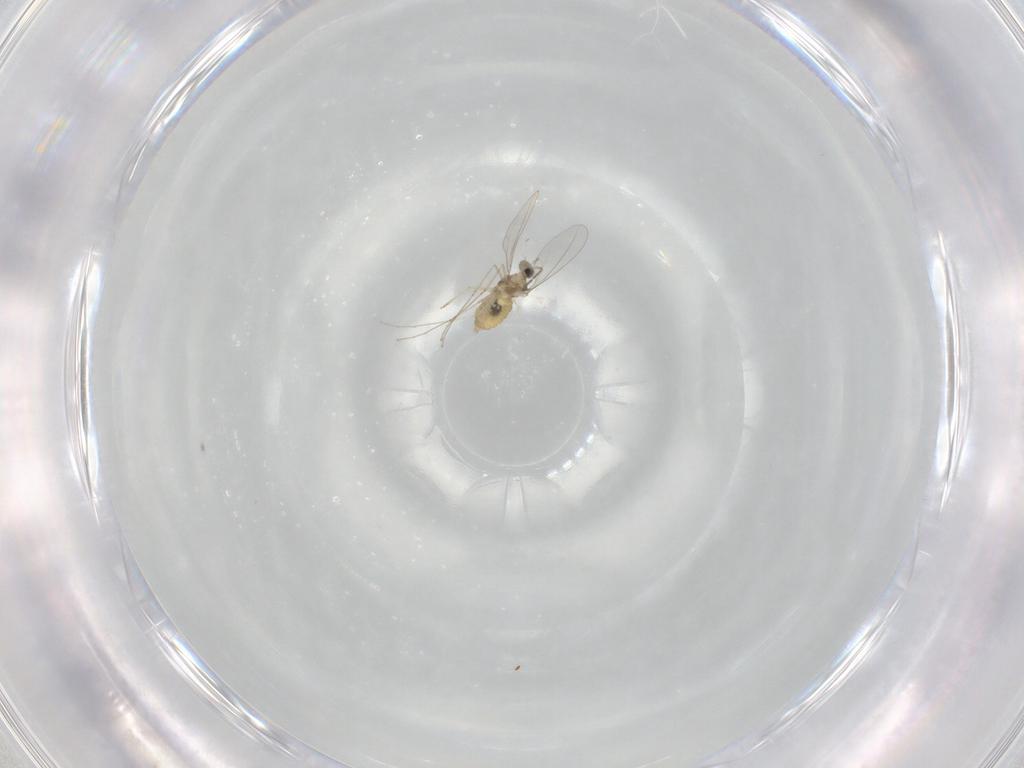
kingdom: Animalia
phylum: Arthropoda
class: Insecta
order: Diptera
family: Cecidomyiidae
